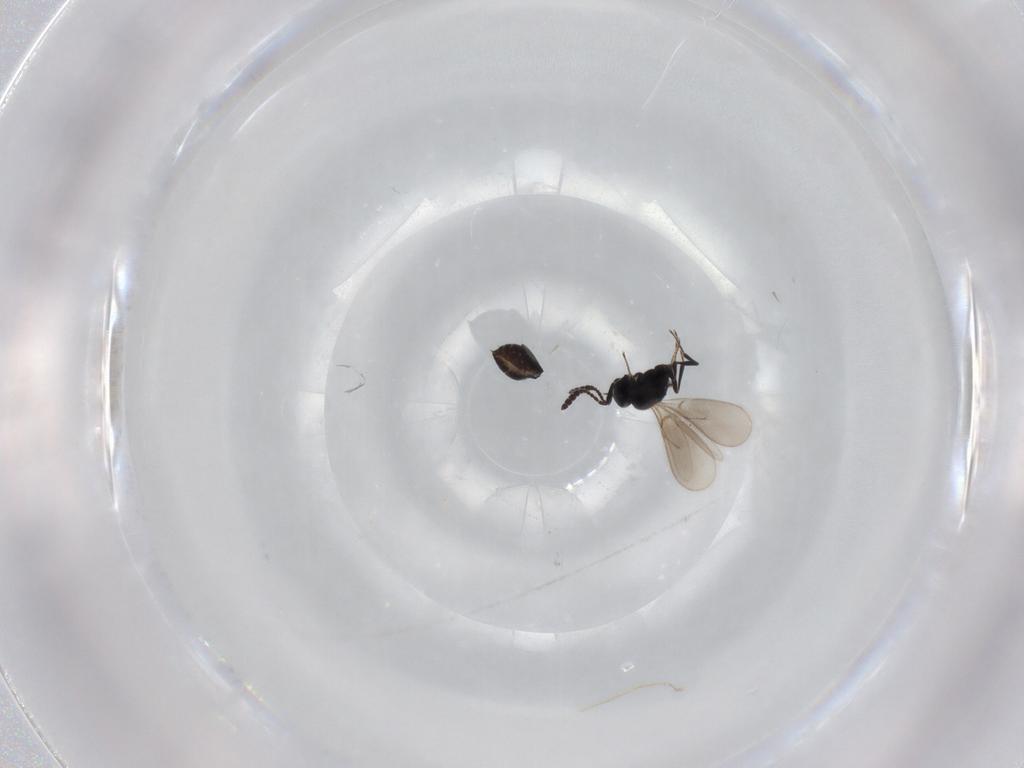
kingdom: Animalia
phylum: Arthropoda
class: Insecta
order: Hymenoptera
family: Scelionidae
